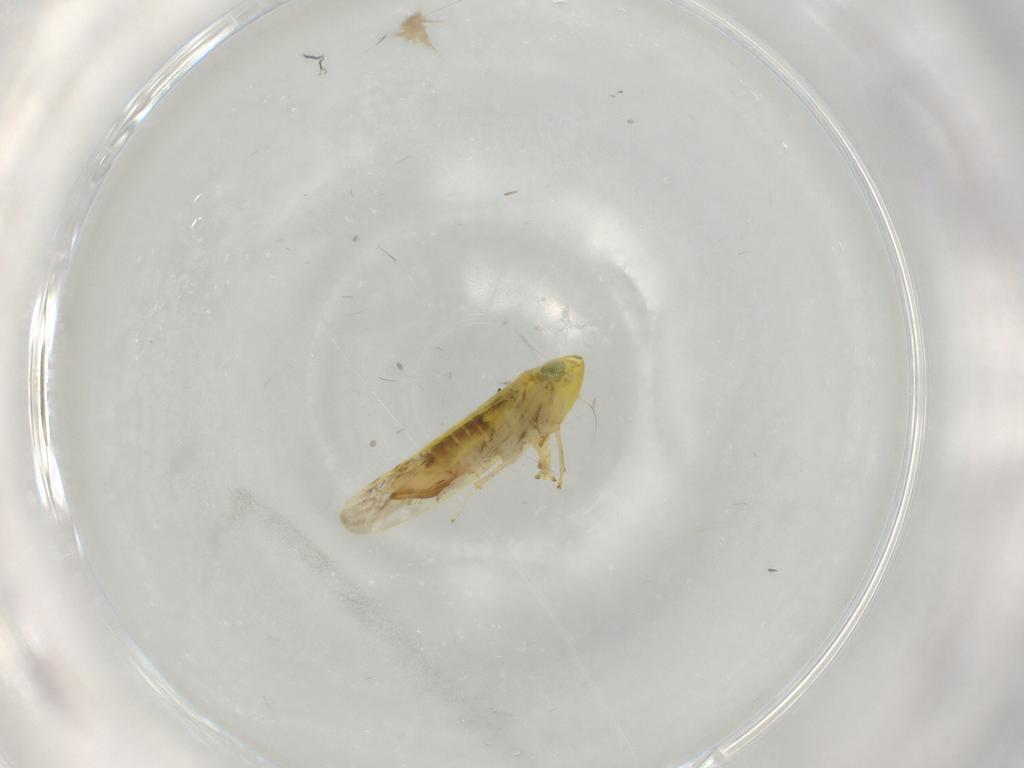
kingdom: Animalia
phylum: Arthropoda
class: Insecta
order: Hemiptera
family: Cicadellidae
